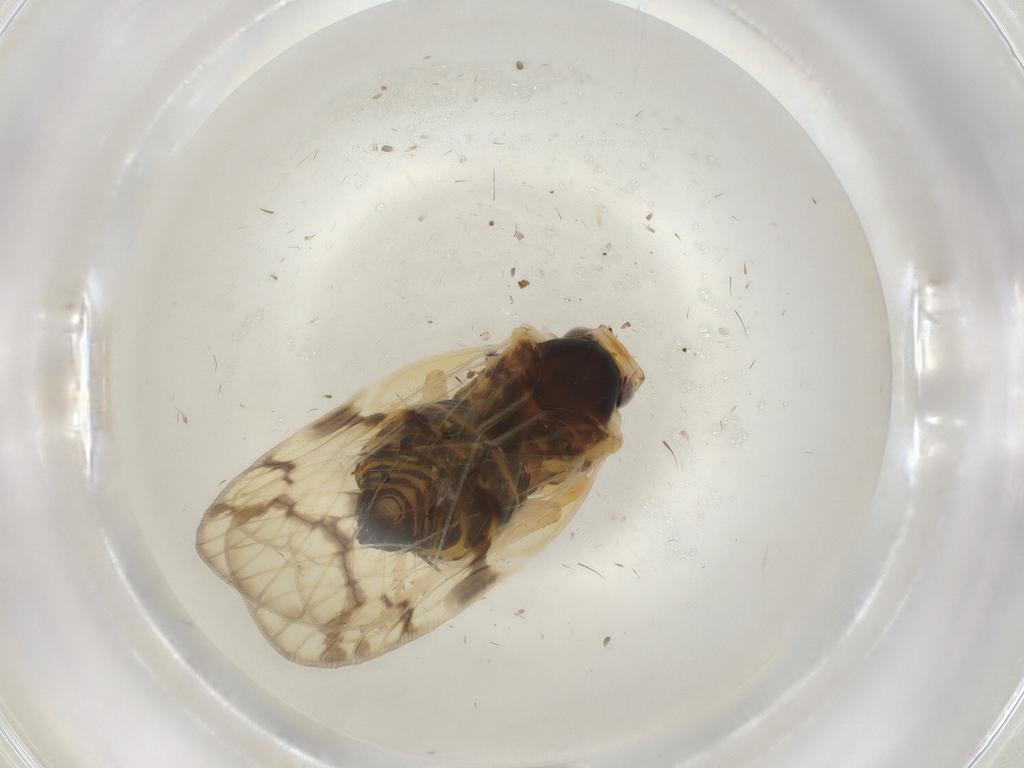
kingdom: Animalia
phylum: Arthropoda
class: Insecta
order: Hemiptera
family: Cixiidae
